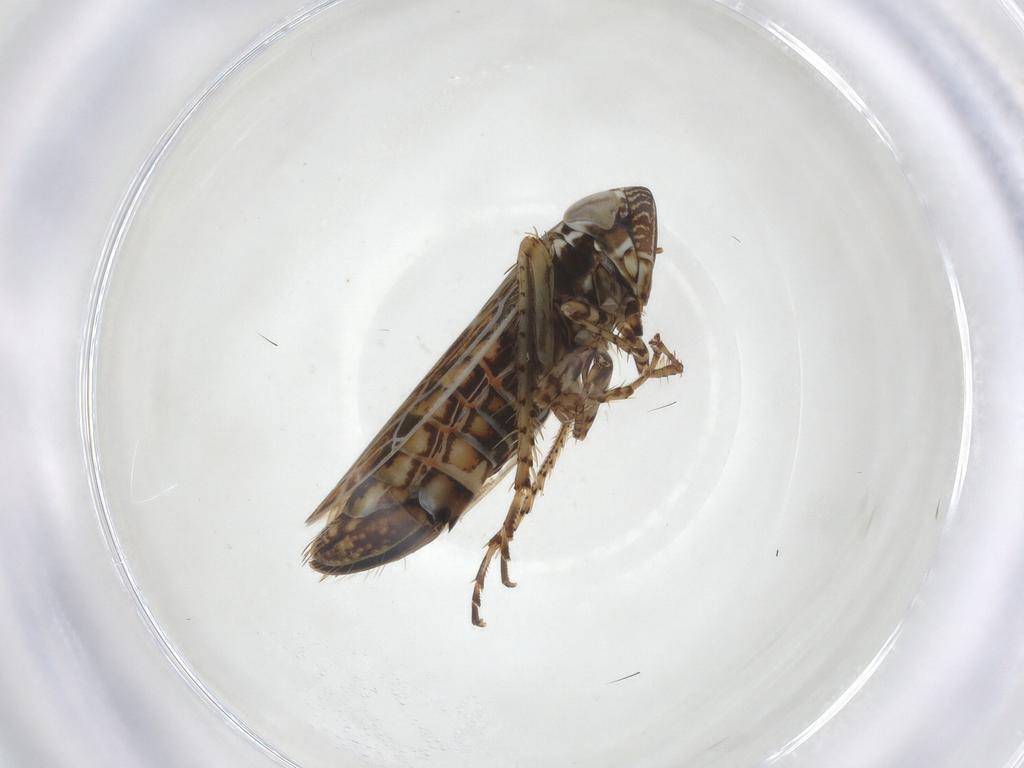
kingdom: Animalia
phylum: Arthropoda
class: Insecta
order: Hemiptera
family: Cicadellidae
